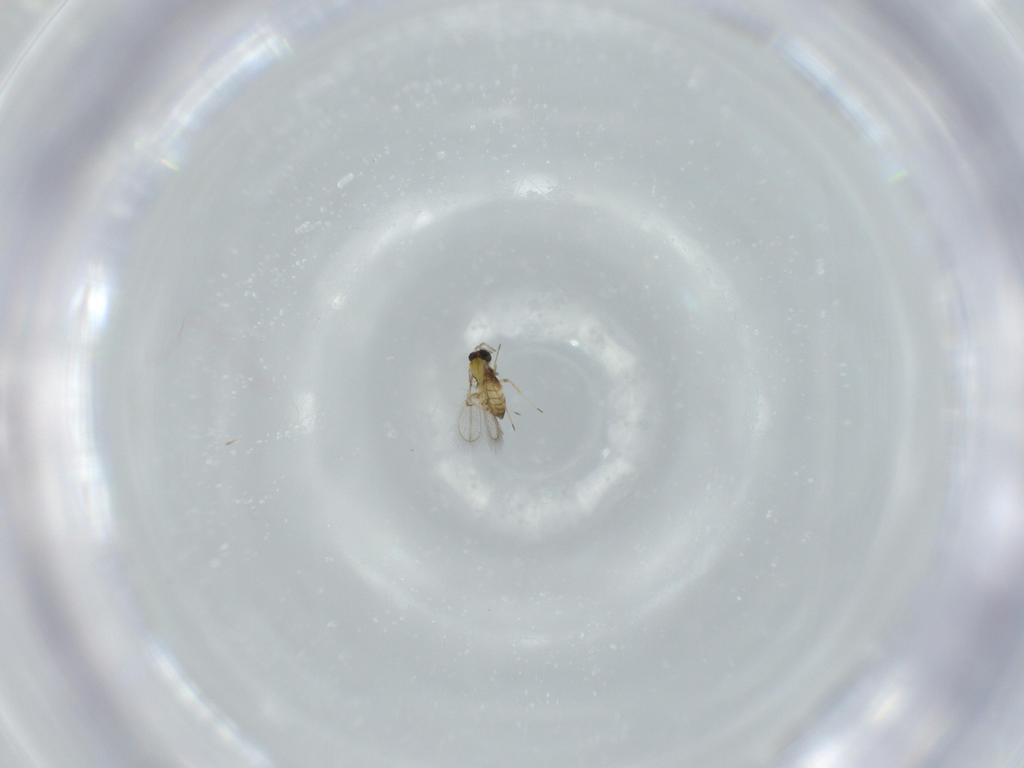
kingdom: Animalia
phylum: Arthropoda
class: Insecta
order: Hymenoptera
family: Trichogrammatidae
